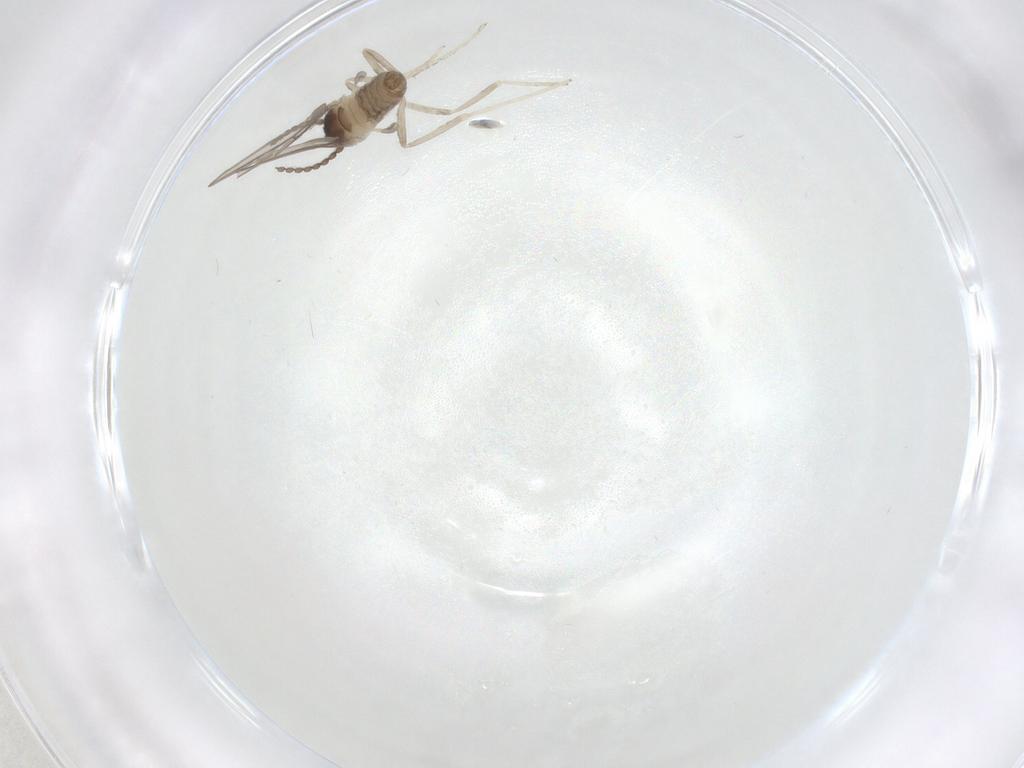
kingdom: Animalia
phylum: Arthropoda
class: Insecta
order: Diptera
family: Cecidomyiidae
